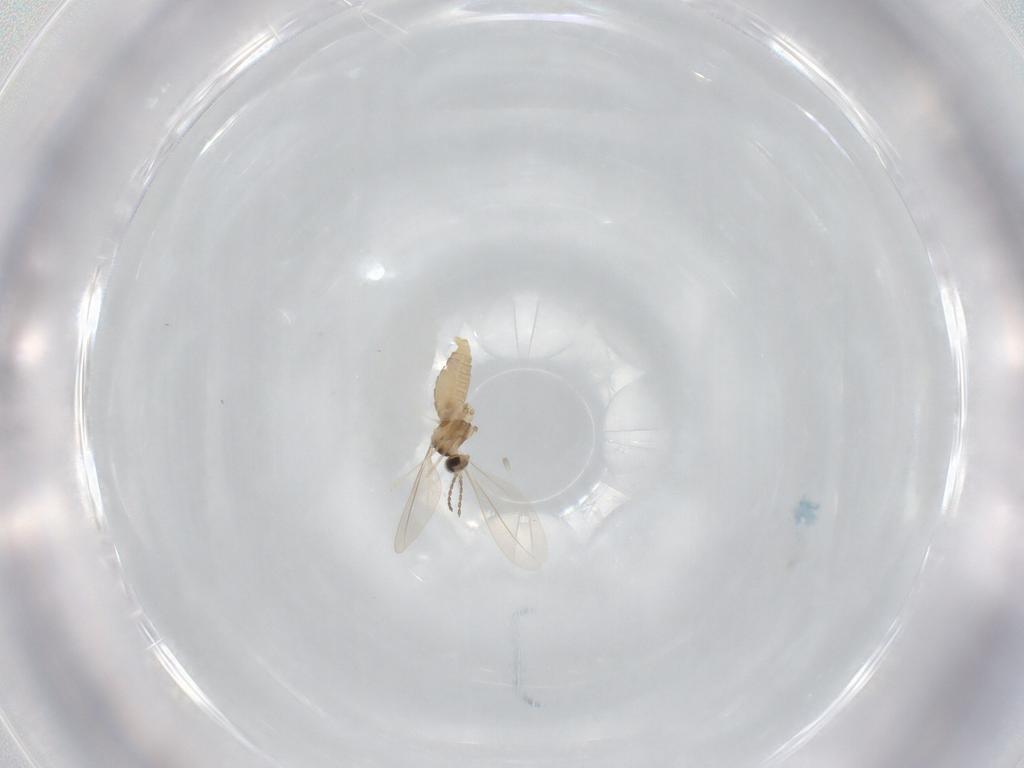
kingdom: Animalia
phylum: Arthropoda
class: Insecta
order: Diptera
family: Cecidomyiidae
